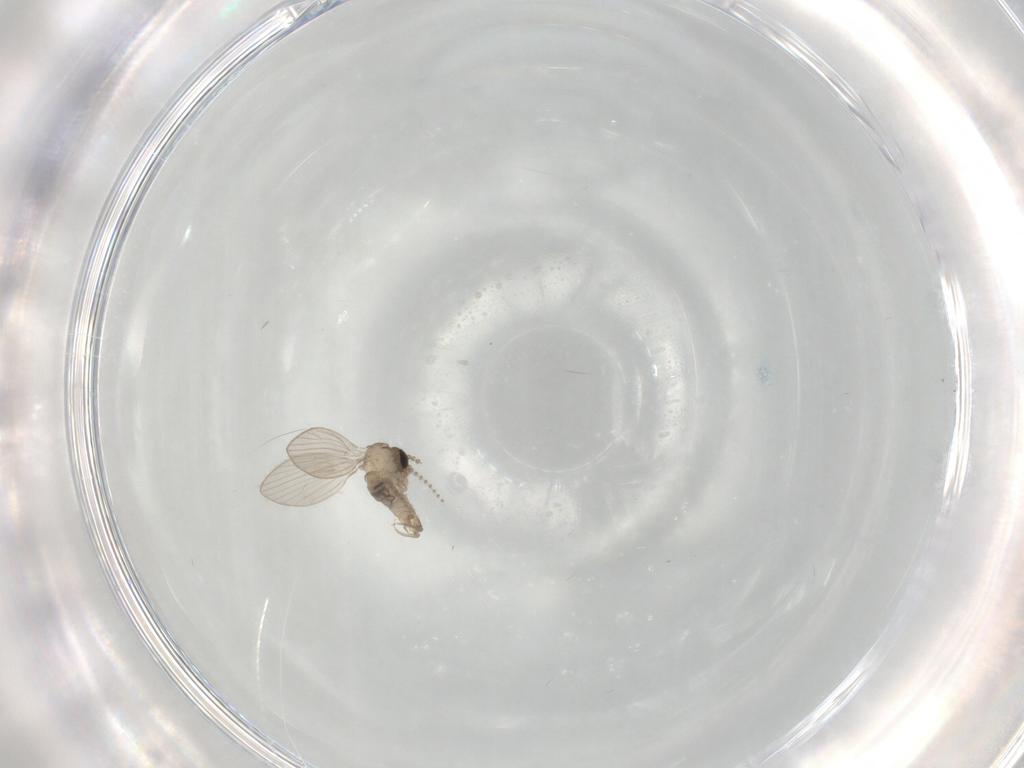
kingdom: Animalia
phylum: Arthropoda
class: Insecta
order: Diptera
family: Psychodidae
